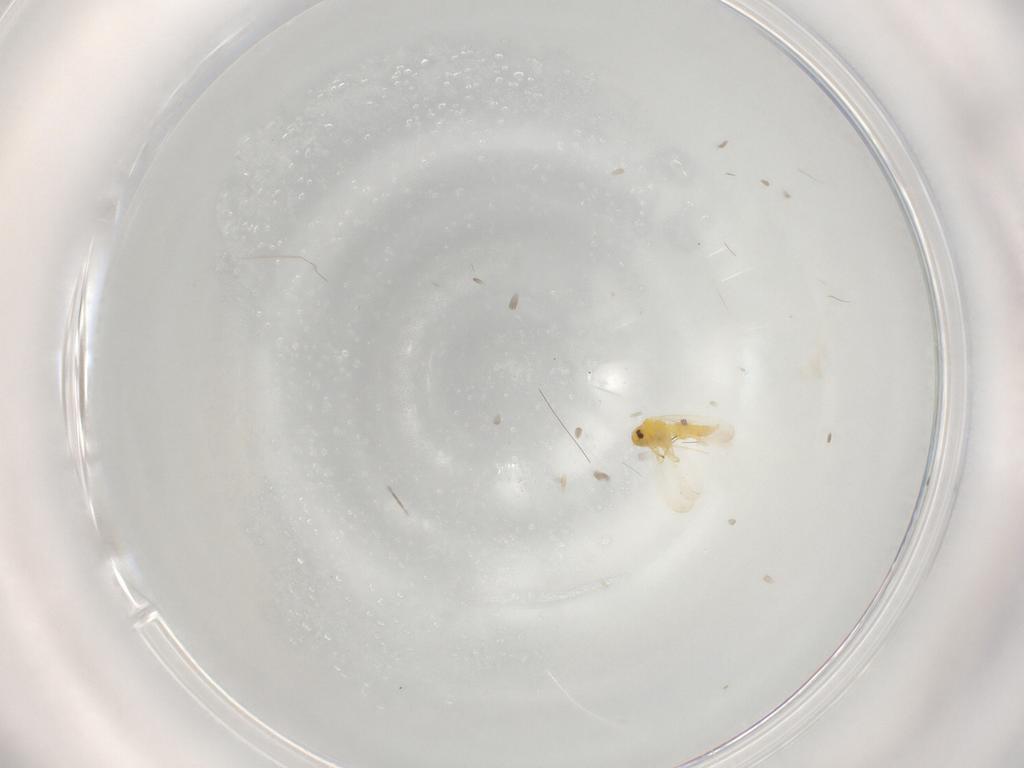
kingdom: Animalia
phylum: Arthropoda
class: Insecta
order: Hemiptera
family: Aleyrodidae
